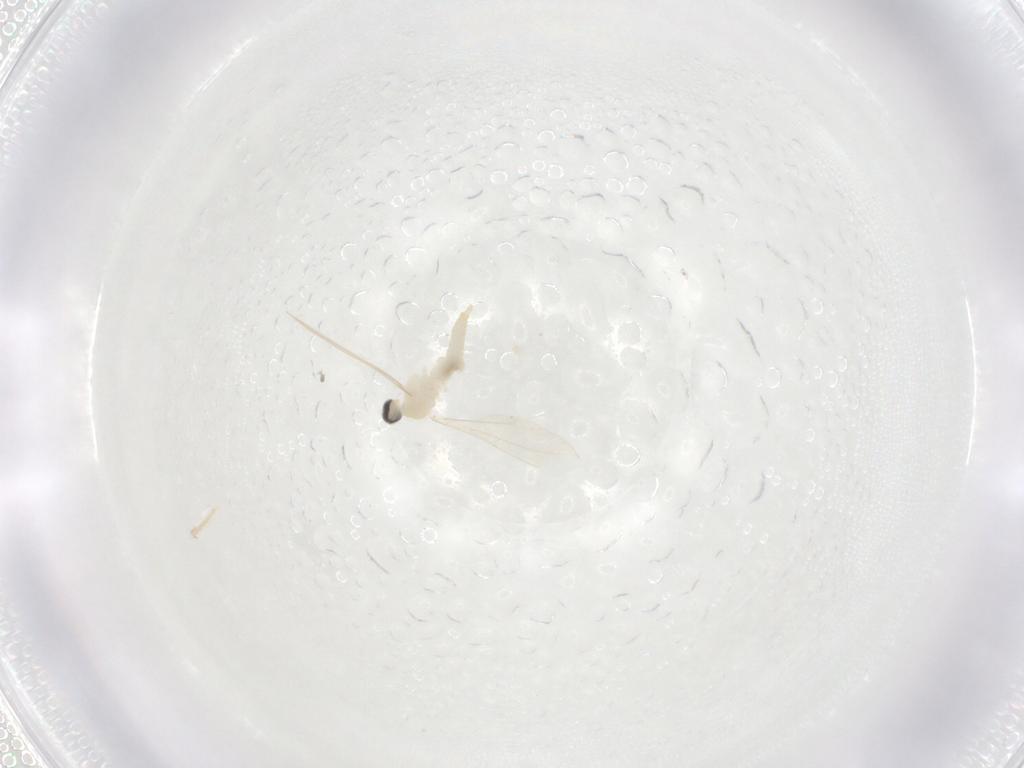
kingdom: Animalia
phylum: Arthropoda
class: Insecta
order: Diptera
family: Cecidomyiidae
